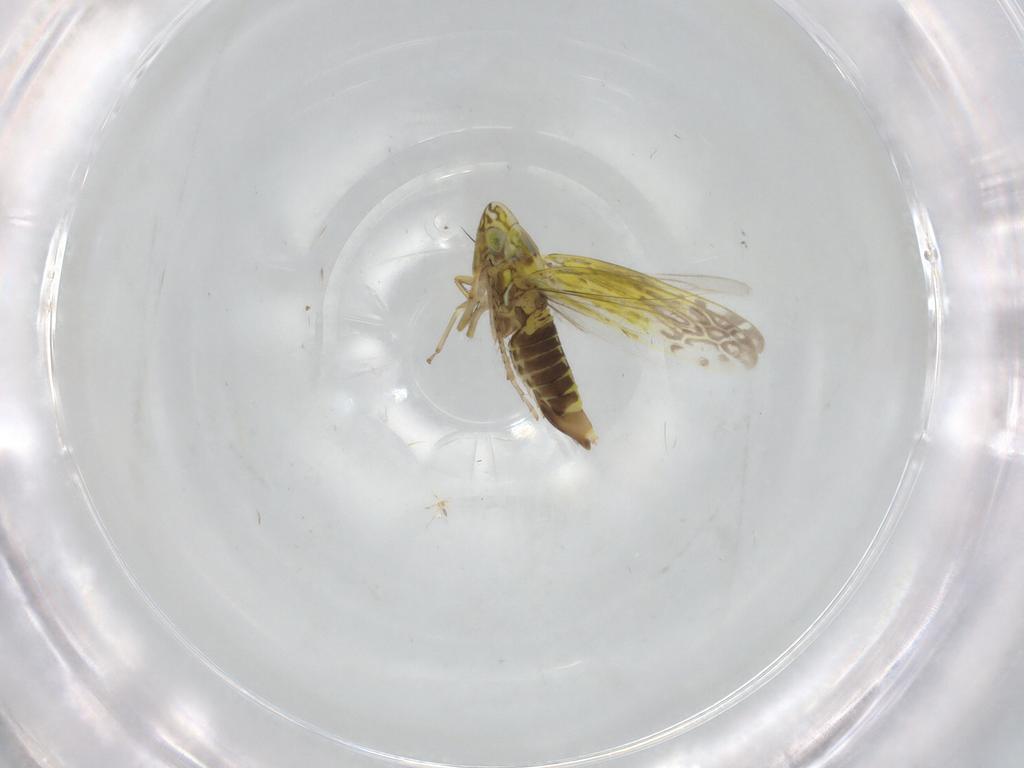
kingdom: Animalia
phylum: Arthropoda
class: Insecta
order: Hemiptera
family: Cicadellidae
